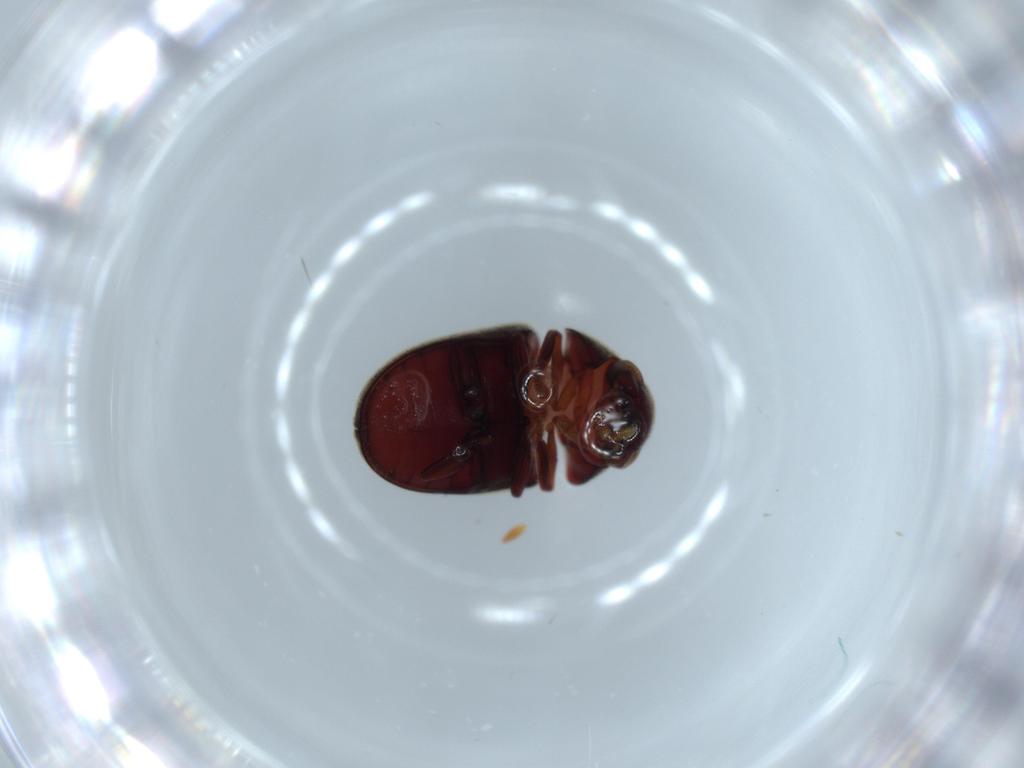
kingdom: Animalia
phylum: Arthropoda
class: Insecta
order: Coleoptera
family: Ptinidae
